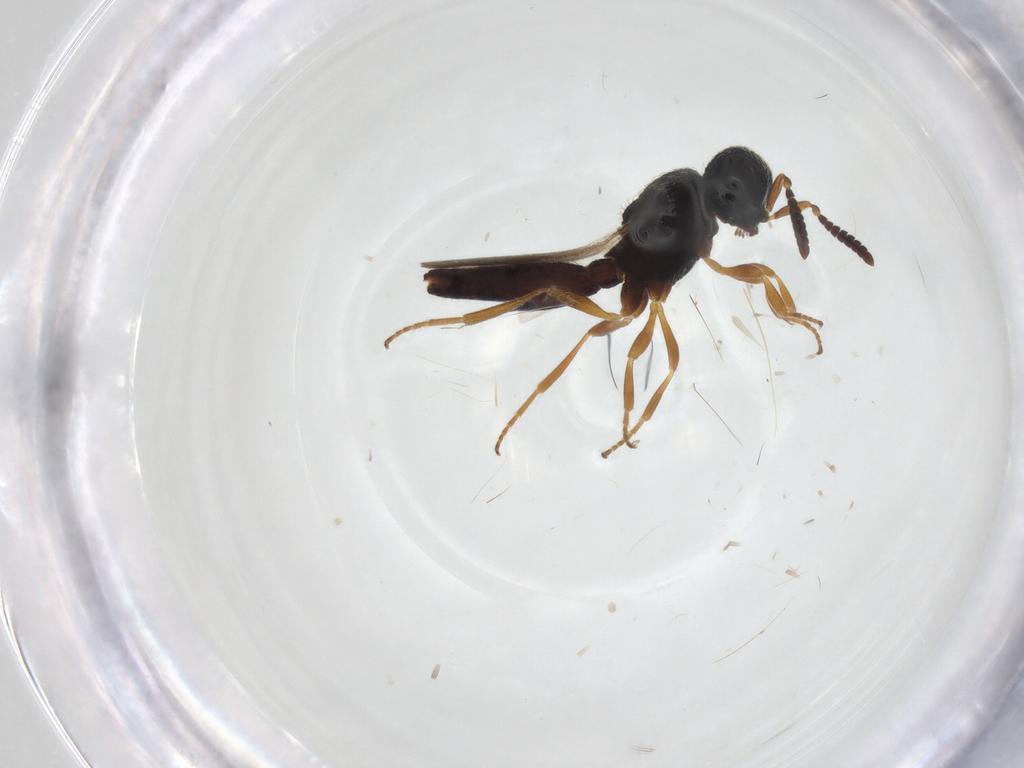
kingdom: Animalia
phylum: Arthropoda
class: Insecta
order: Hymenoptera
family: Scelionidae
